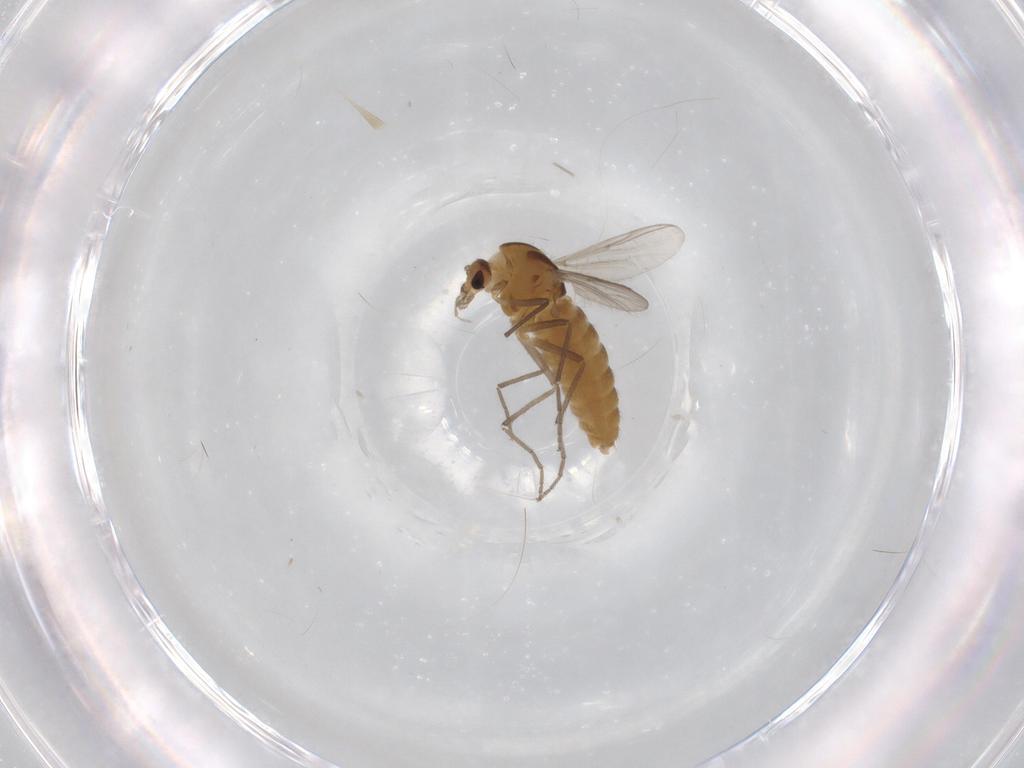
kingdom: Animalia
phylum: Arthropoda
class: Insecta
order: Diptera
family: Chironomidae
